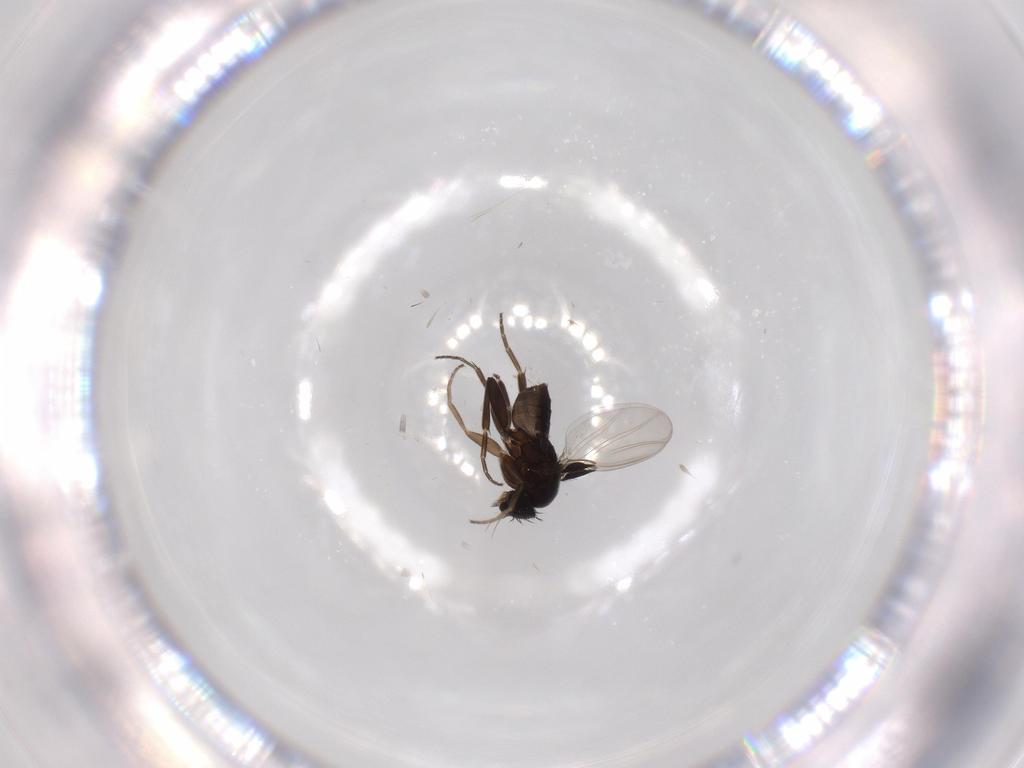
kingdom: Animalia
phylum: Arthropoda
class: Insecta
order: Diptera
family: Phoridae
